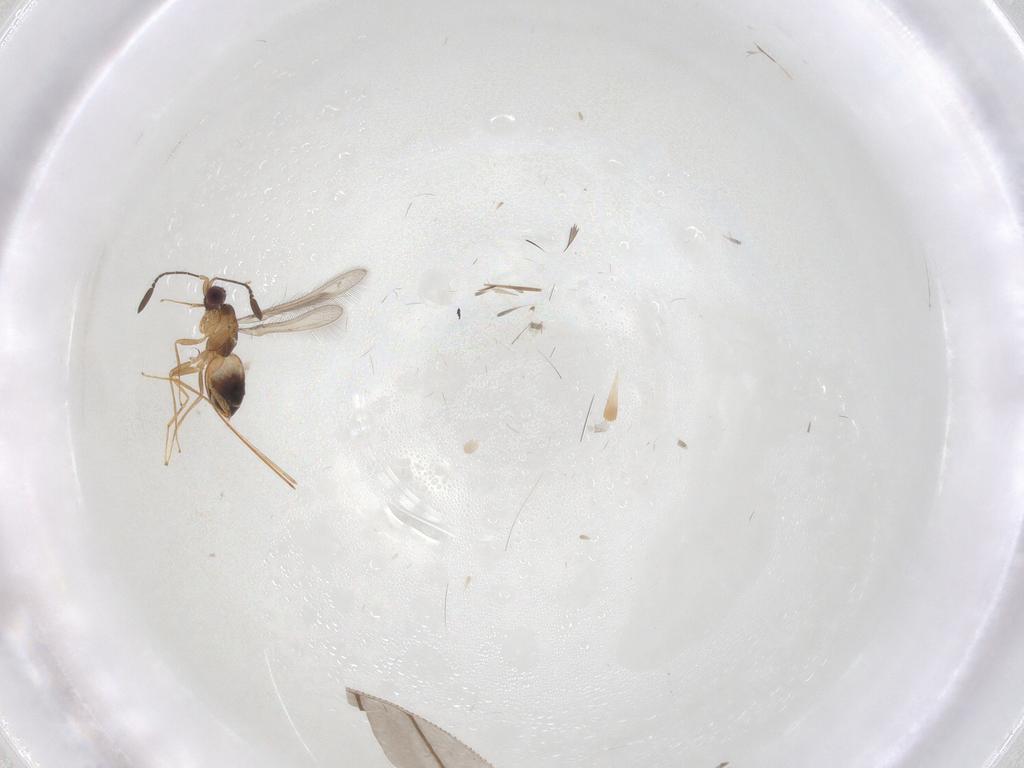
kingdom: Animalia
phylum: Arthropoda
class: Insecta
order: Hymenoptera
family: Mymaridae
